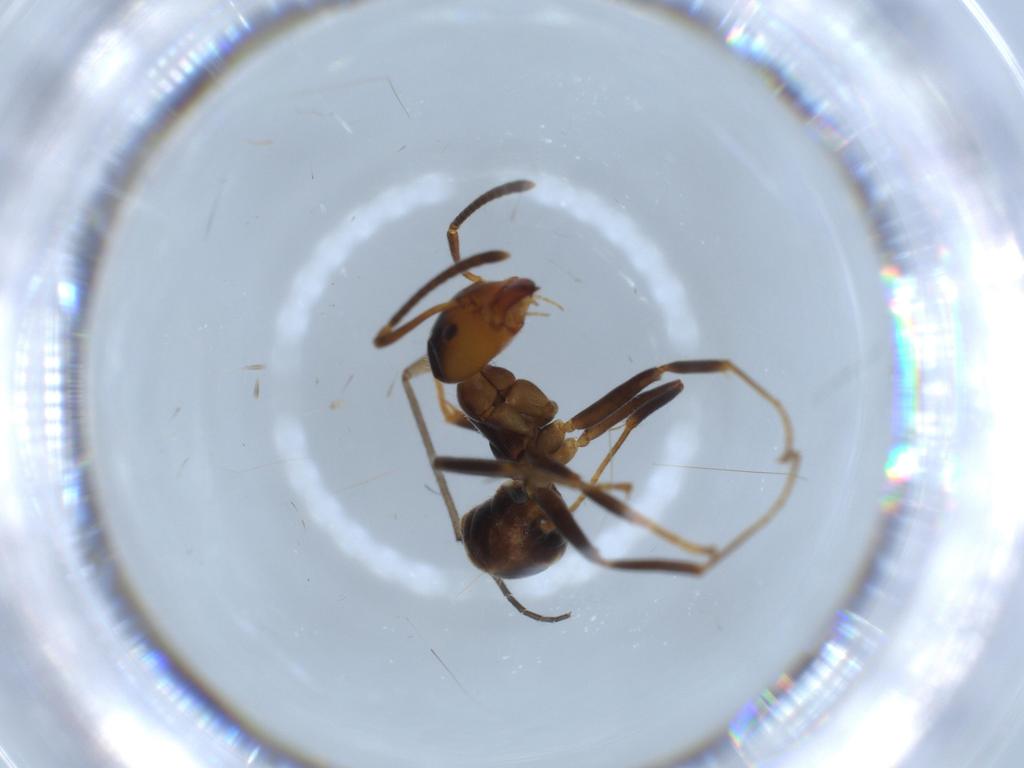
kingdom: Animalia
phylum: Arthropoda
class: Insecta
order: Hymenoptera
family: Formicidae
